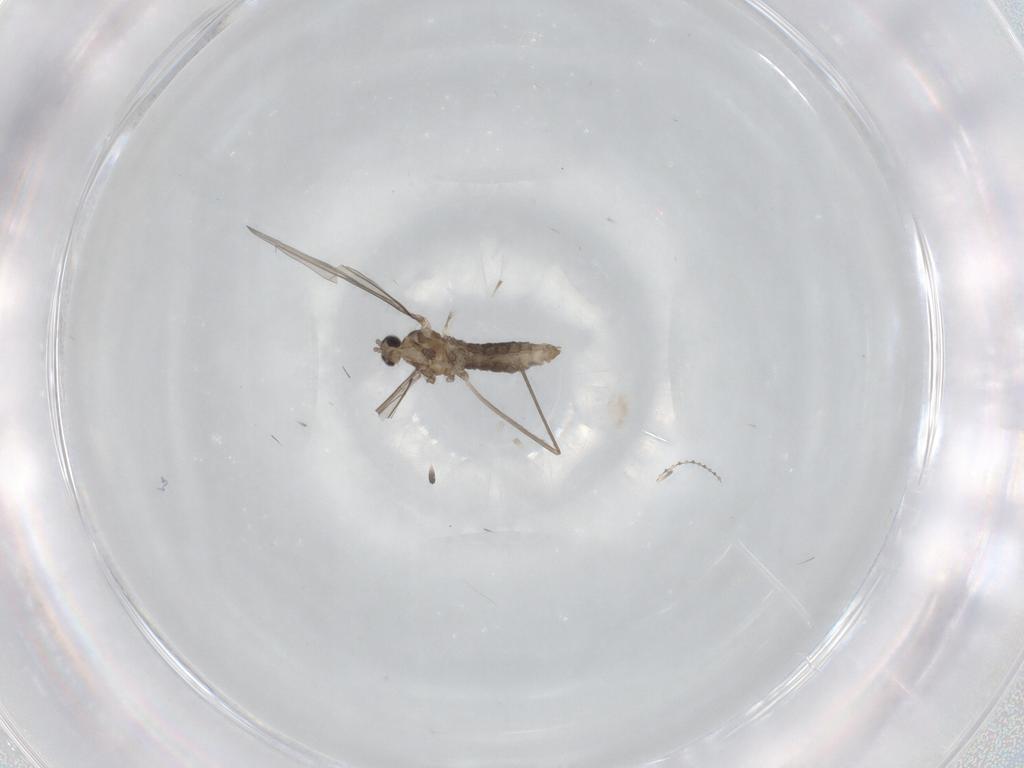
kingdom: Animalia
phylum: Arthropoda
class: Insecta
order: Diptera
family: Cecidomyiidae
